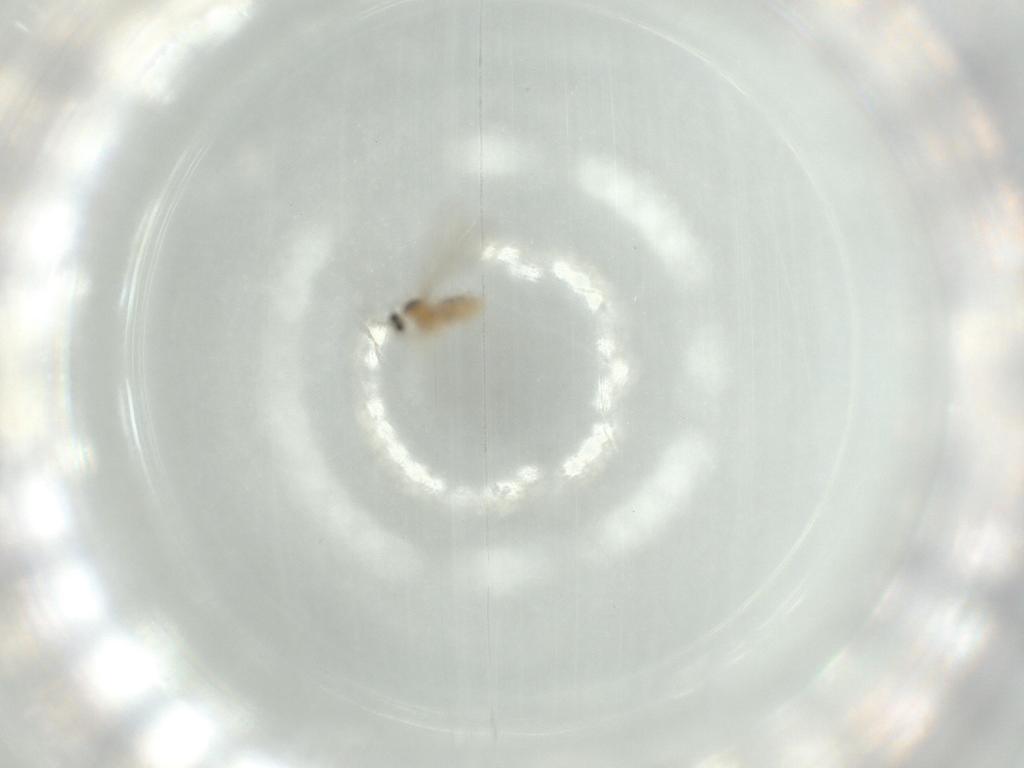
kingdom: Animalia
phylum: Arthropoda
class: Insecta
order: Diptera
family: Cecidomyiidae
